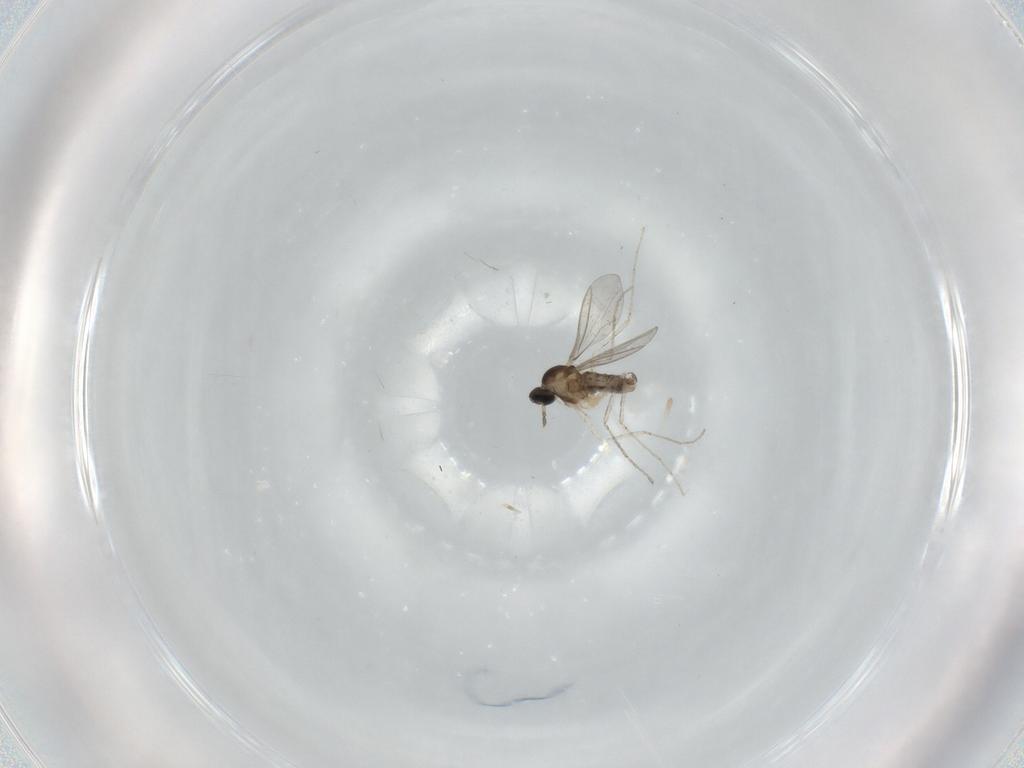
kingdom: Animalia
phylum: Arthropoda
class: Insecta
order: Diptera
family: Cecidomyiidae
